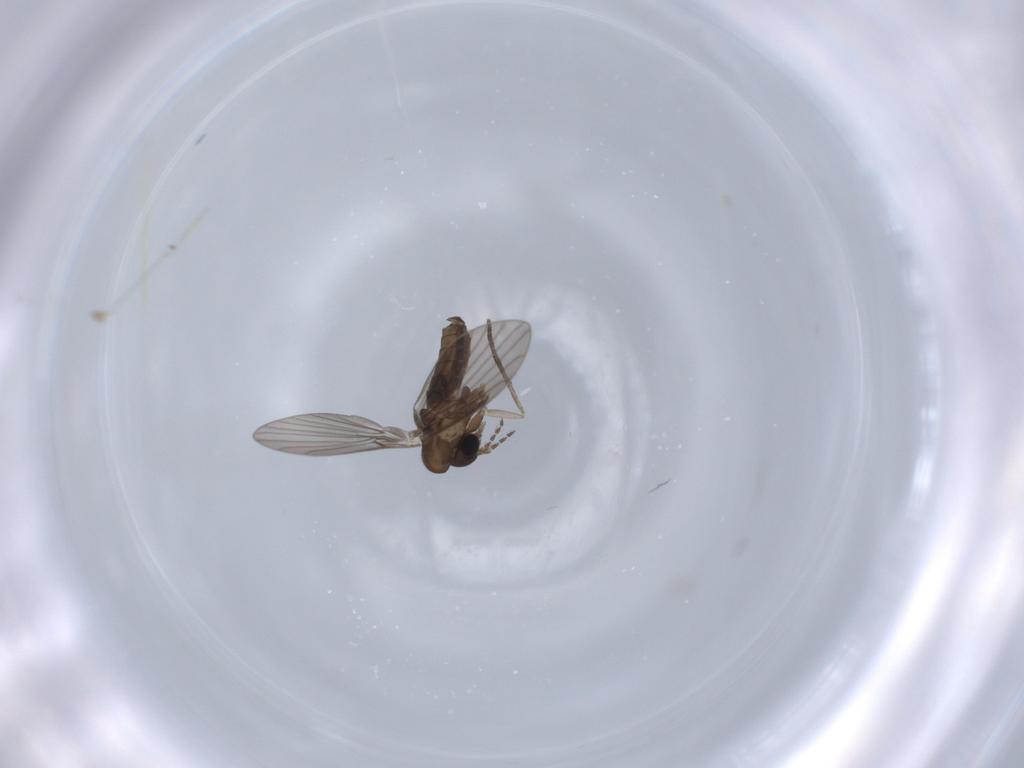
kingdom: Animalia
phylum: Arthropoda
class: Insecta
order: Diptera
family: Psychodidae
